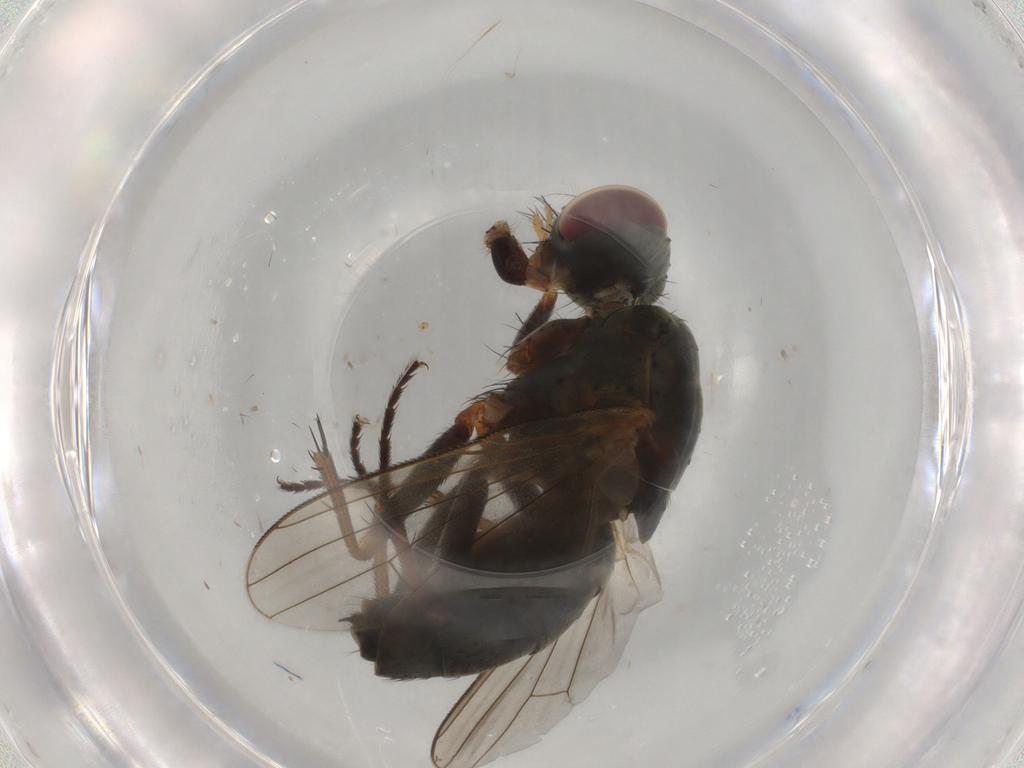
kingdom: Animalia
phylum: Arthropoda
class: Insecta
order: Diptera
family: Muscidae
